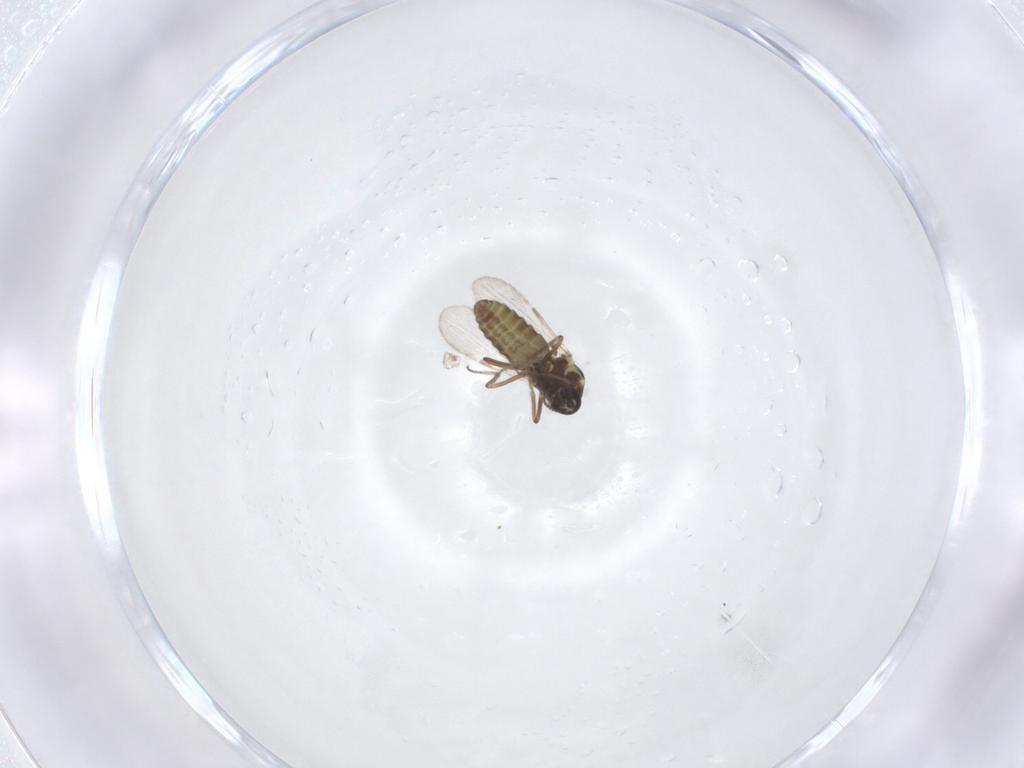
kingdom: Animalia
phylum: Arthropoda
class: Insecta
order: Diptera
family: Ceratopogonidae
